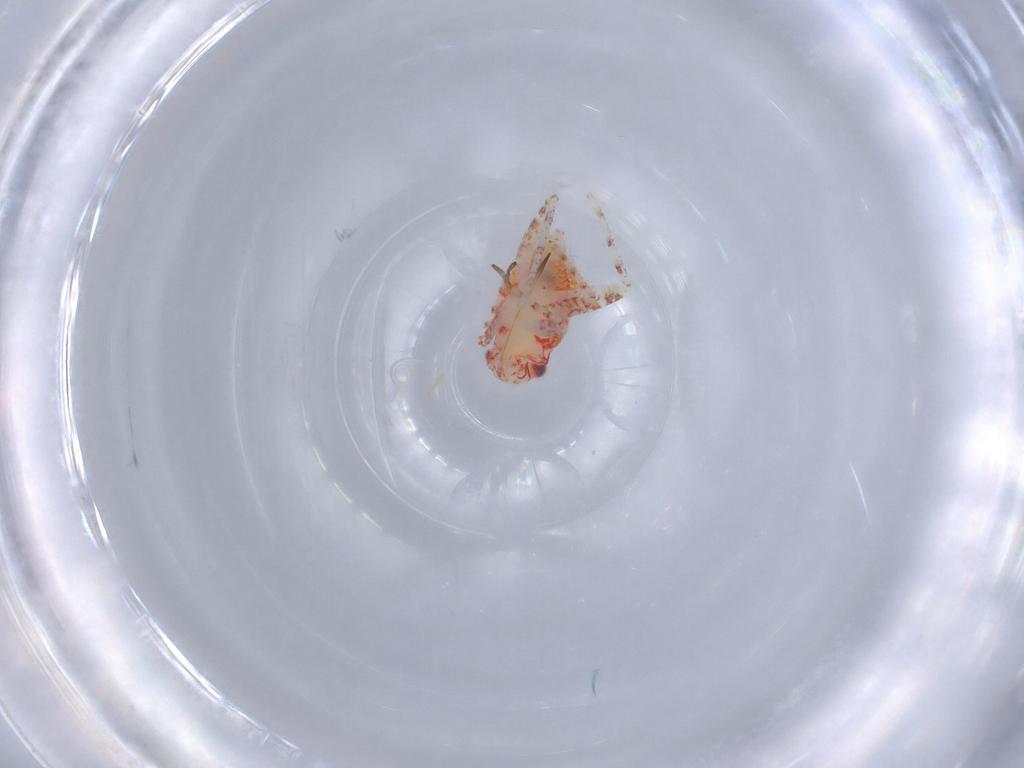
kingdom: Animalia
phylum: Arthropoda
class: Insecta
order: Hemiptera
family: Miridae
